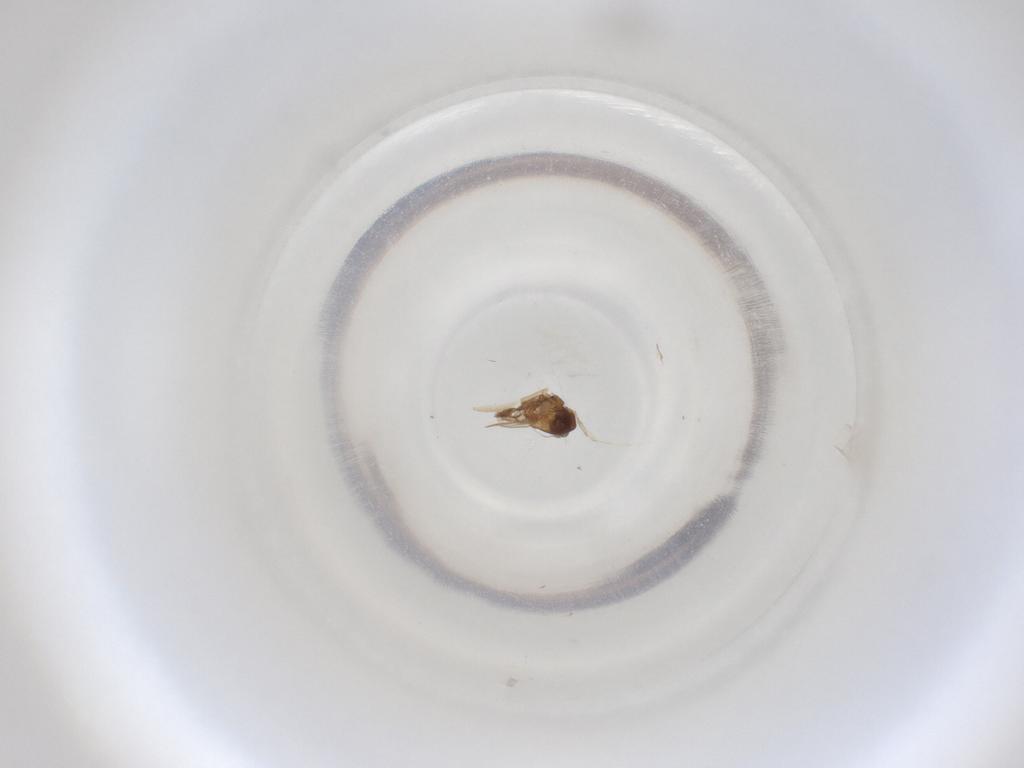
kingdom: Animalia
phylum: Arthropoda
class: Insecta
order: Diptera
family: Cecidomyiidae
